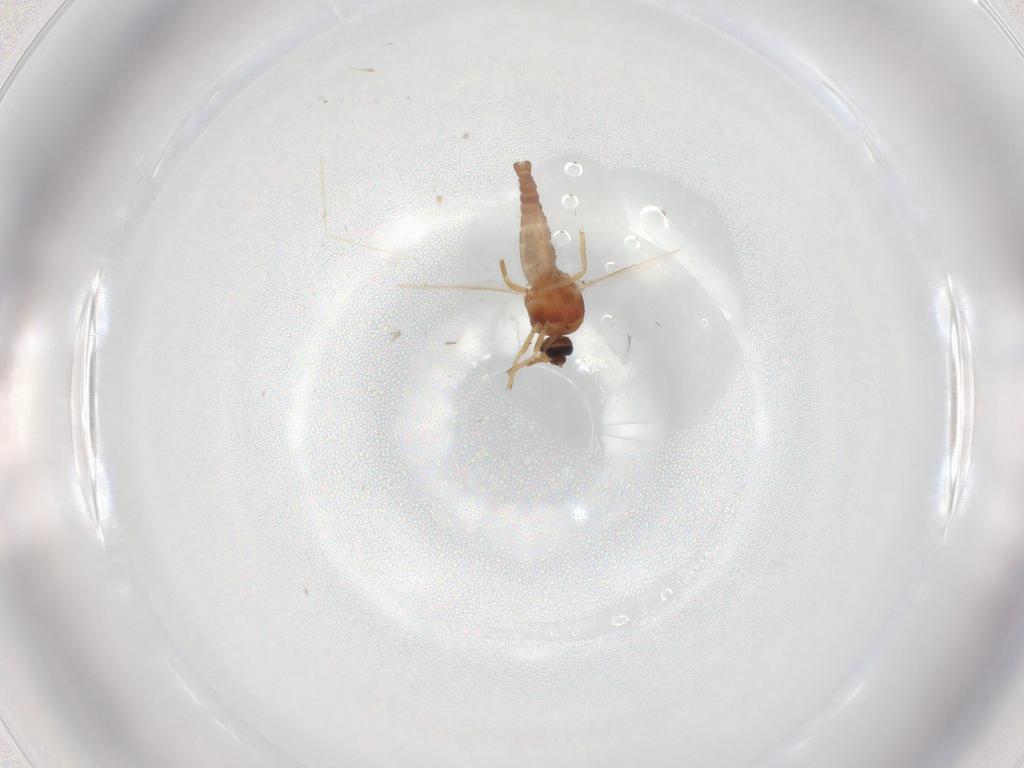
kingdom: Animalia
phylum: Arthropoda
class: Insecta
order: Diptera
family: Ceratopogonidae
